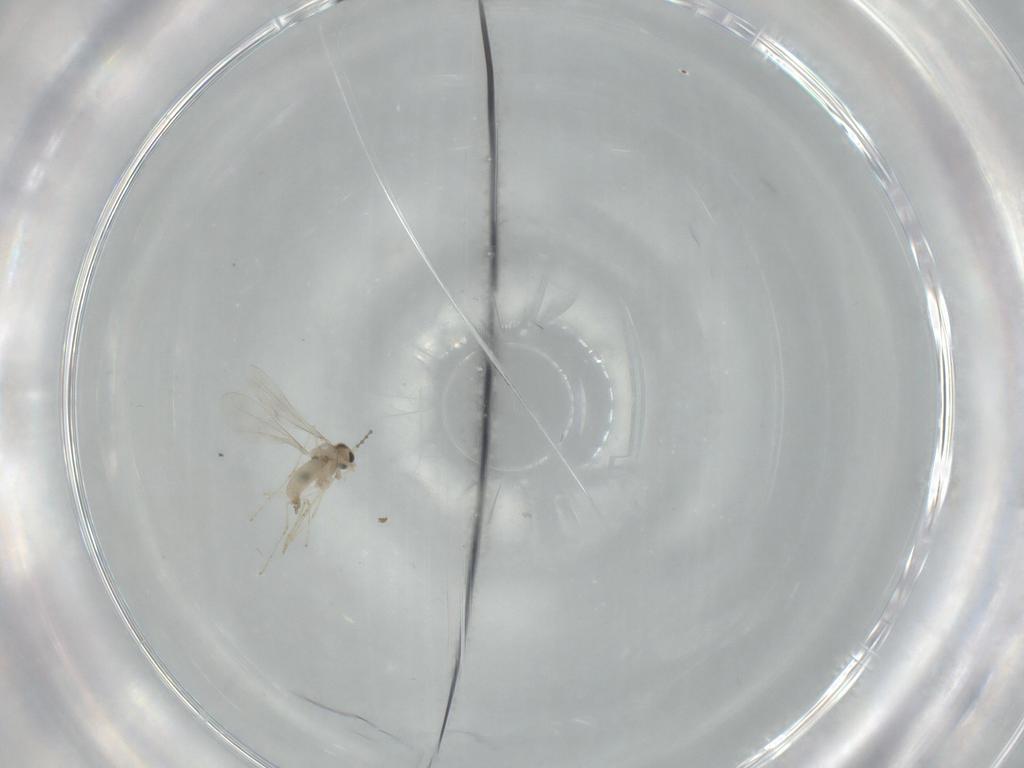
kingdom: Animalia
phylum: Arthropoda
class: Insecta
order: Diptera
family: Cecidomyiidae
